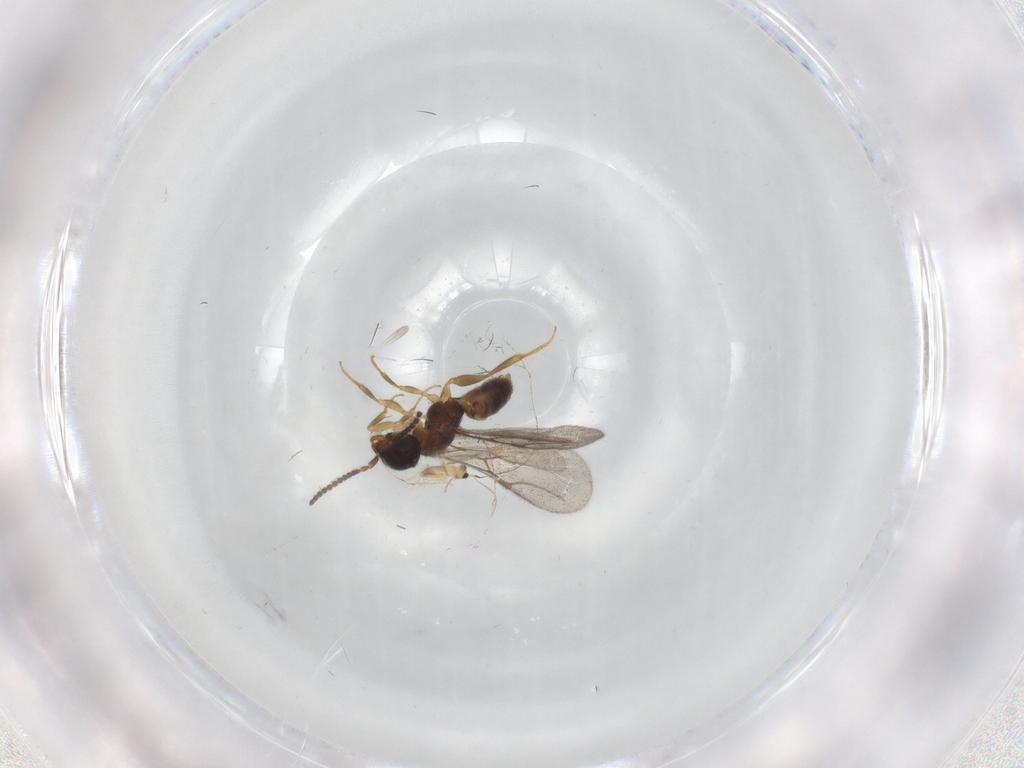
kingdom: Animalia
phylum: Arthropoda
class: Insecta
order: Hymenoptera
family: Bethylidae
